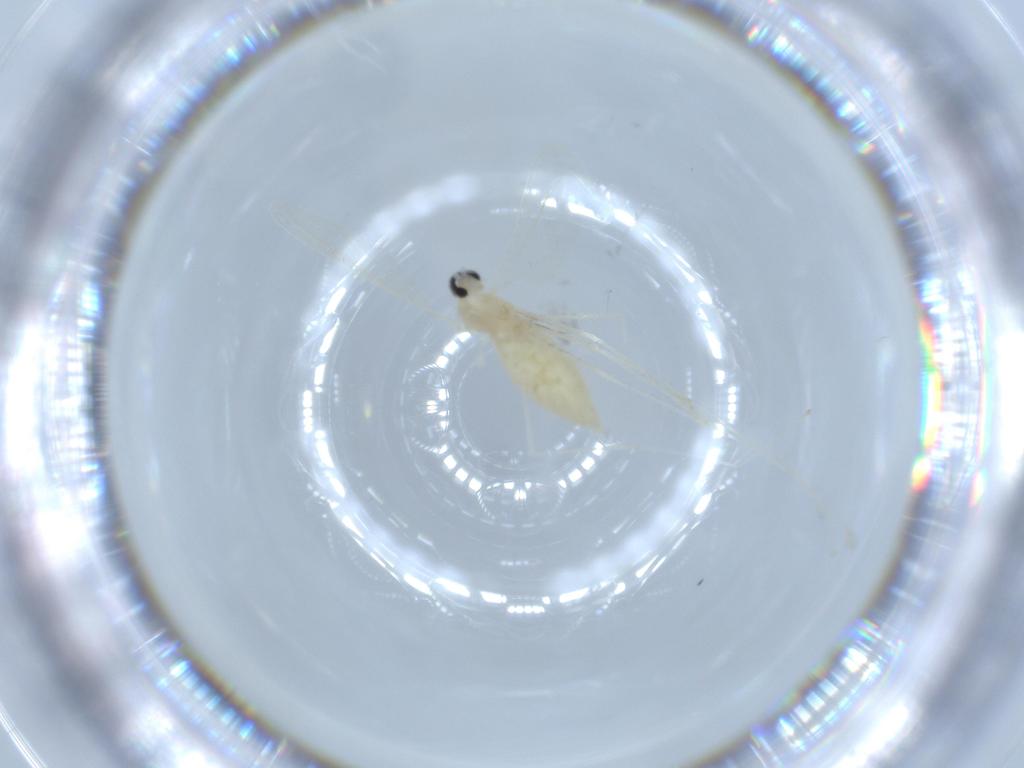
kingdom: Animalia
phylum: Arthropoda
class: Insecta
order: Diptera
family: Cecidomyiidae
